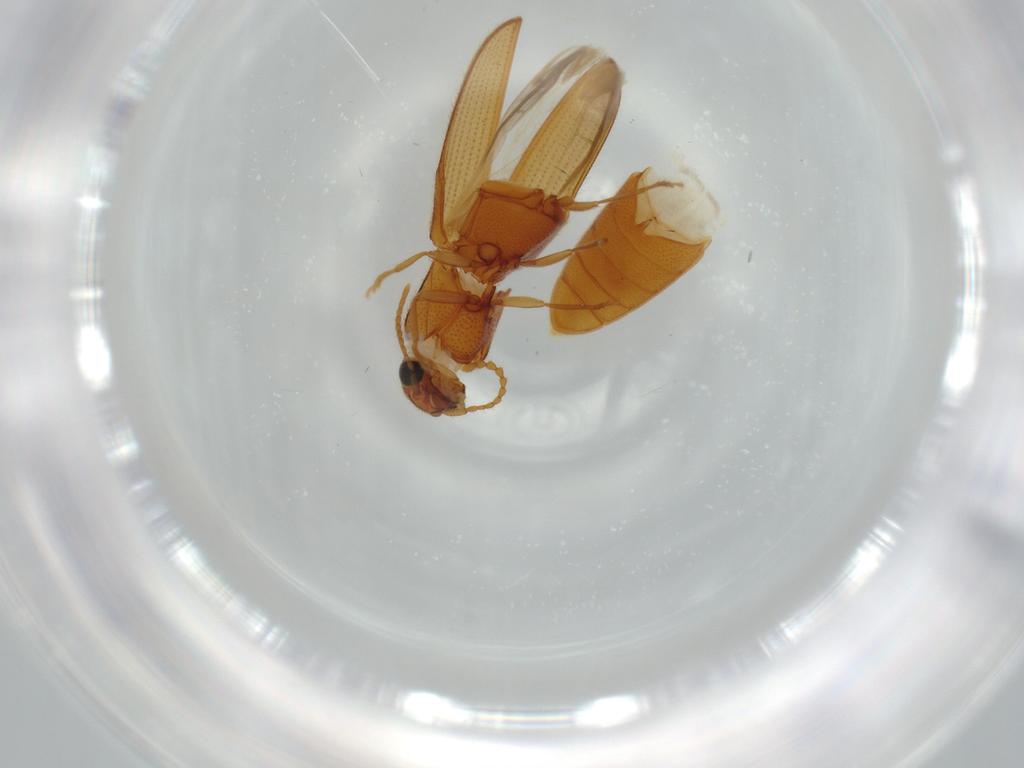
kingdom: Animalia
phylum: Arthropoda
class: Insecta
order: Coleoptera
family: Elateridae
